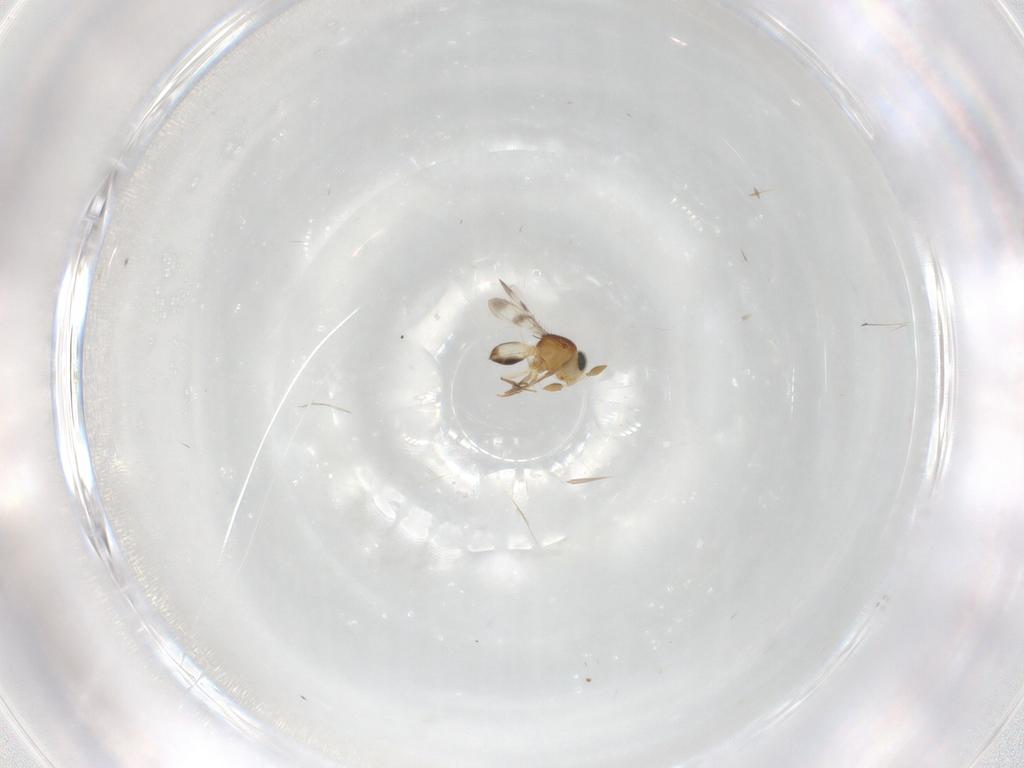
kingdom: Animalia
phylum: Arthropoda
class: Insecta
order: Hymenoptera
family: Scelionidae
